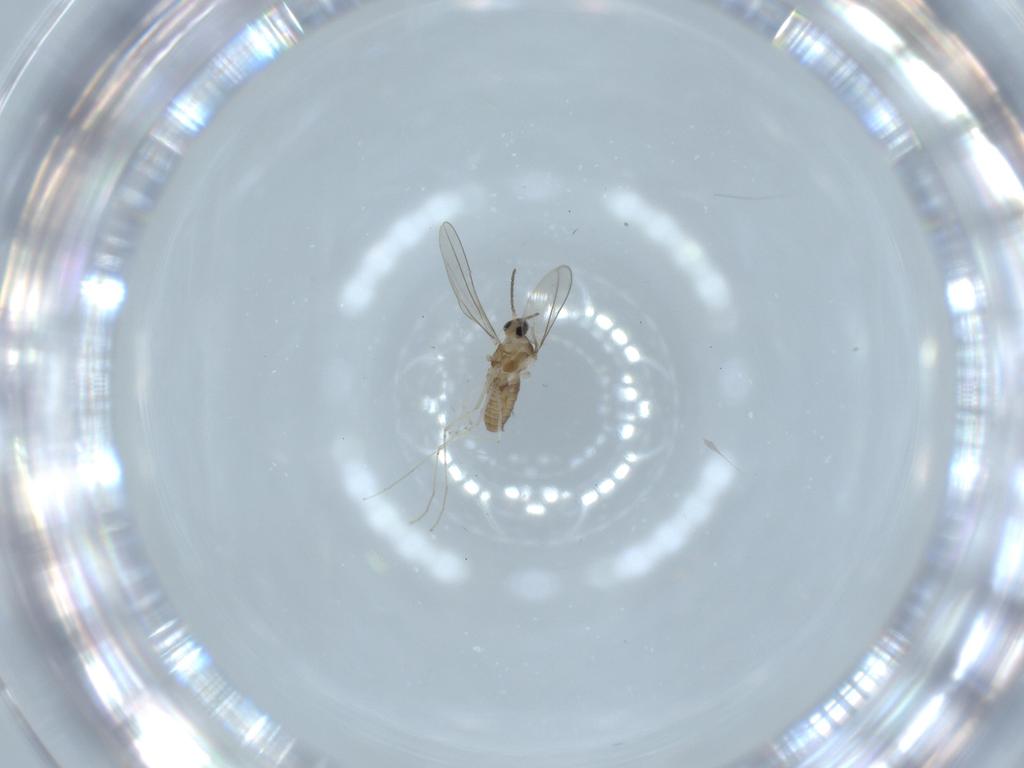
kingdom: Animalia
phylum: Arthropoda
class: Insecta
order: Diptera
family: Cecidomyiidae
